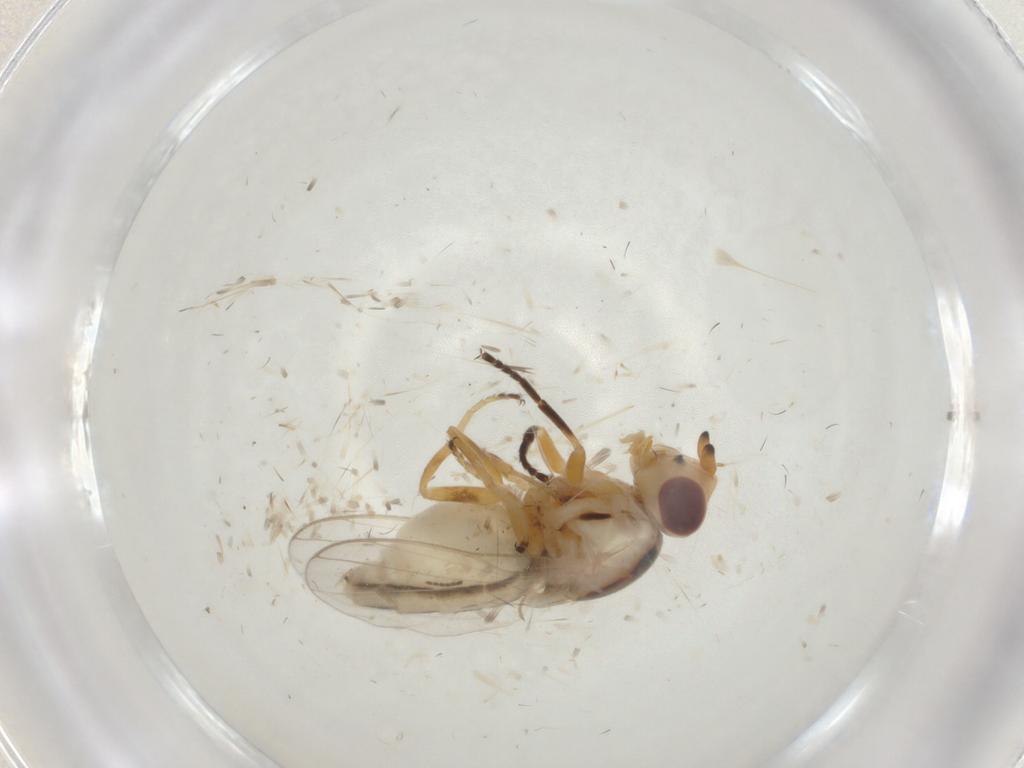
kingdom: Animalia
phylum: Arthropoda
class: Insecta
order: Diptera
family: Chloropidae
